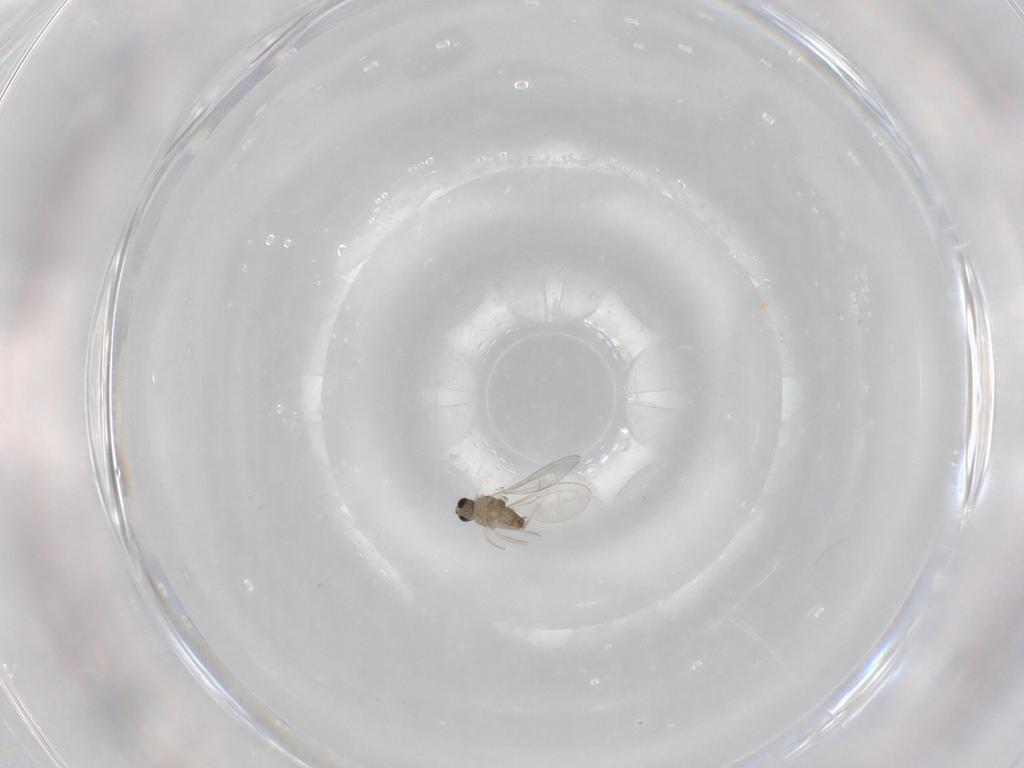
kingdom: Animalia
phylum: Arthropoda
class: Insecta
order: Diptera
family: Cecidomyiidae
